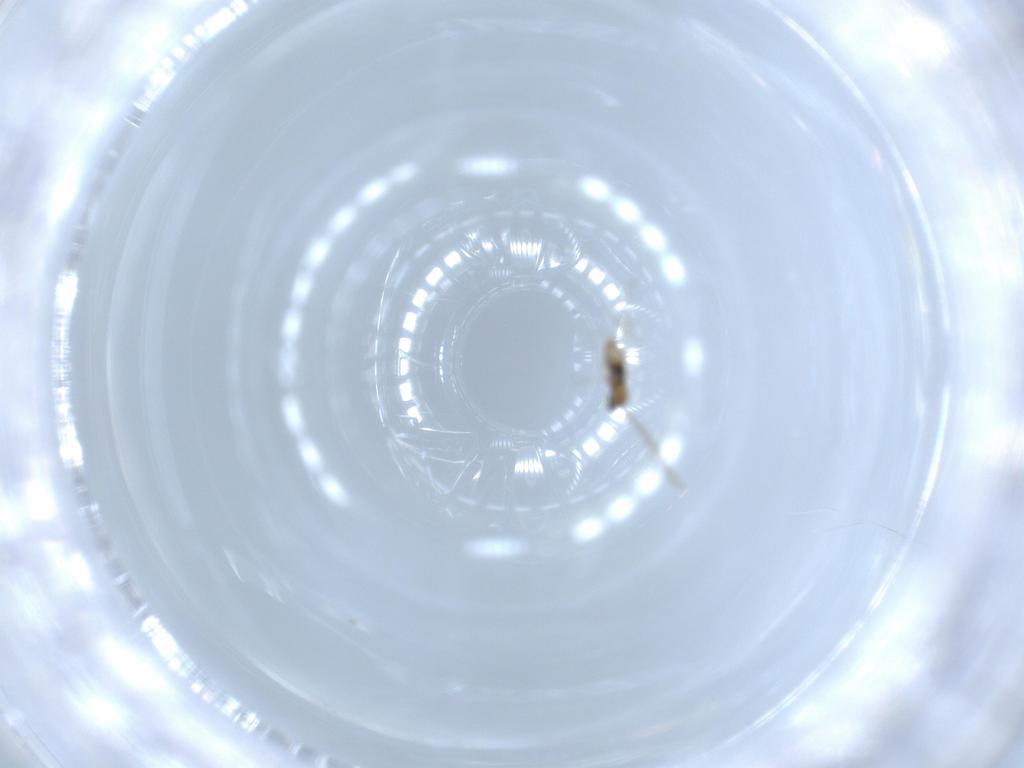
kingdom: Animalia
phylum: Arthropoda
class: Insecta
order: Diptera
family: Cecidomyiidae
